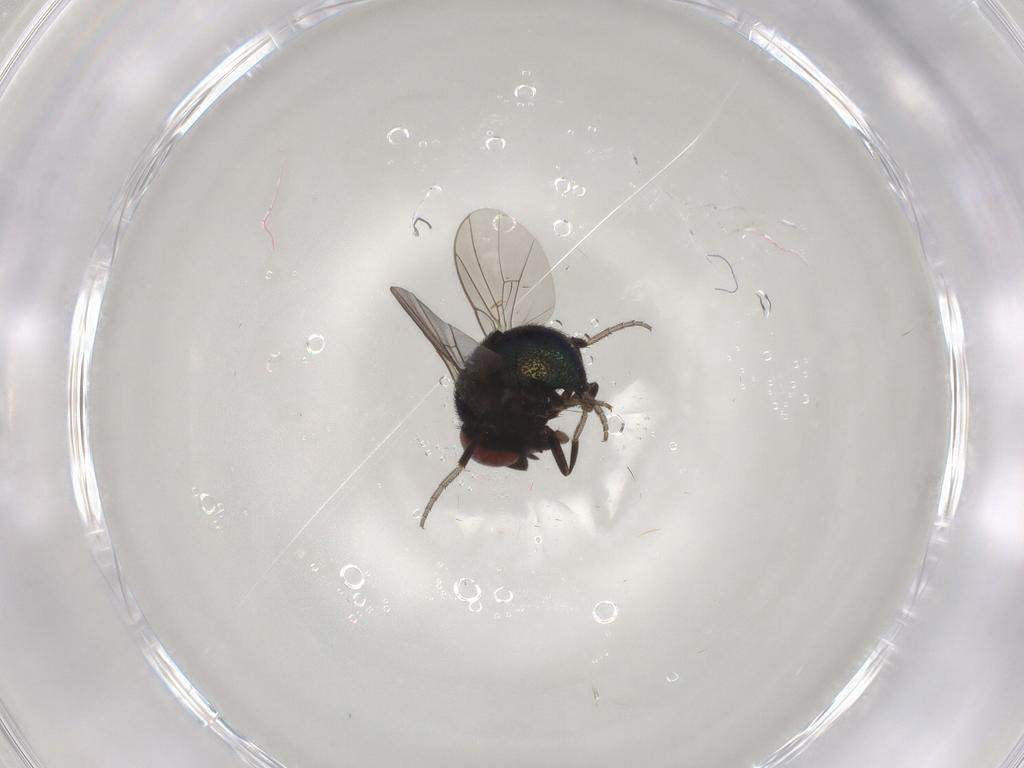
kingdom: Animalia
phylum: Arthropoda
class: Insecta
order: Diptera
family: Cryptochetidae
